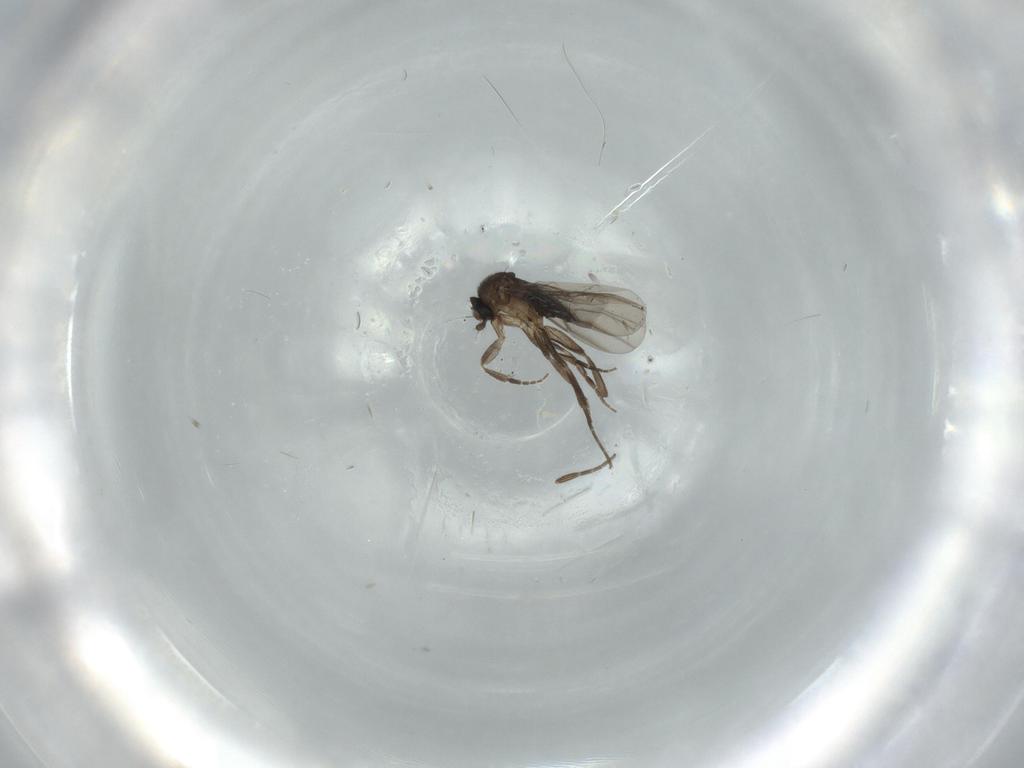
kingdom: Animalia
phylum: Arthropoda
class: Insecta
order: Diptera
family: Phoridae
